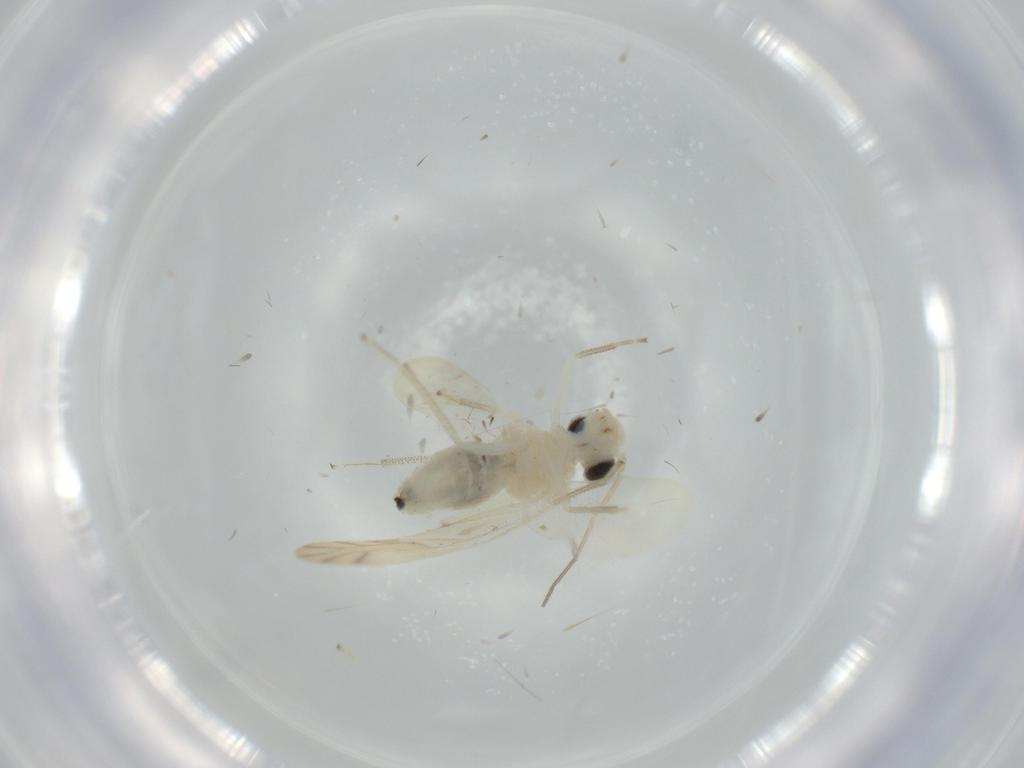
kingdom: Animalia
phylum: Arthropoda
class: Insecta
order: Psocodea
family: Caeciliusidae
